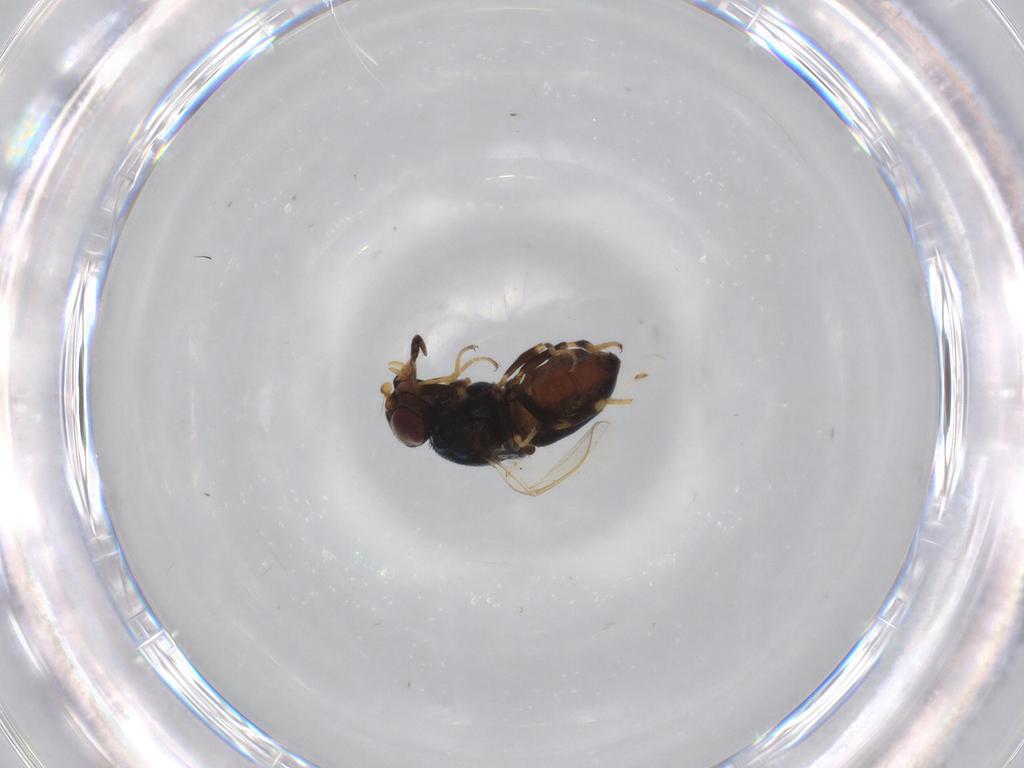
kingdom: Animalia
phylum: Arthropoda
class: Insecta
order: Diptera
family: Chloropidae
